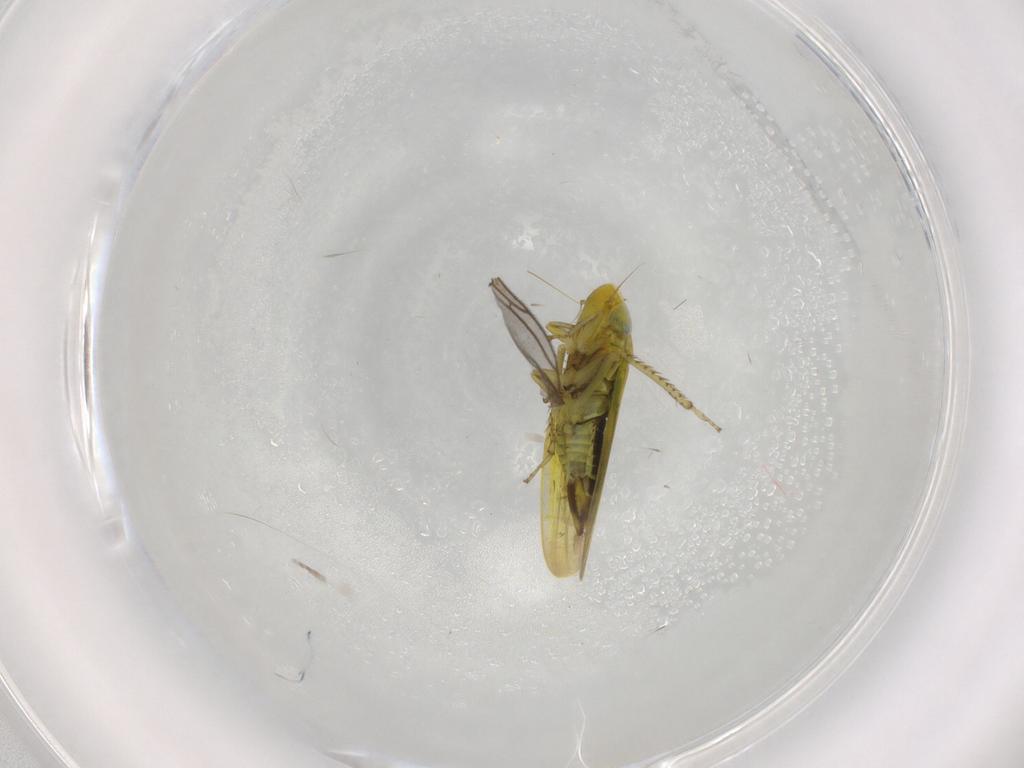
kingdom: Animalia
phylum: Arthropoda
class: Insecta
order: Hemiptera
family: Cicadellidae
